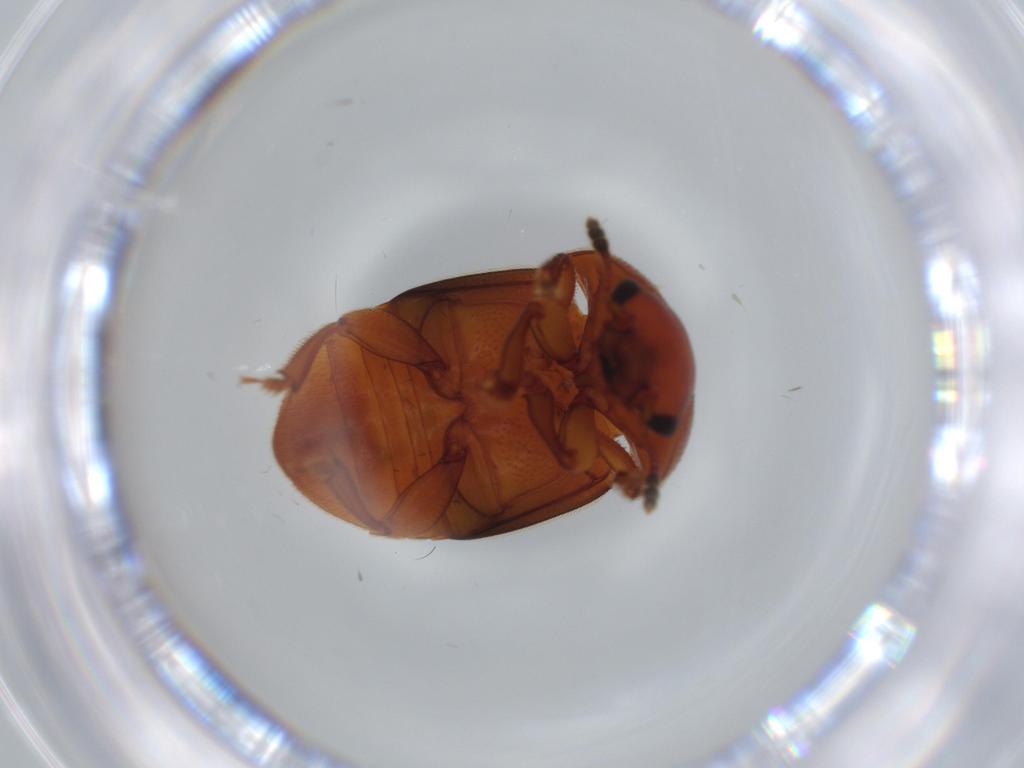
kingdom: Animalia
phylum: Arthropoda
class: Insecta
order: Coleoptera
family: Nitidulidae
